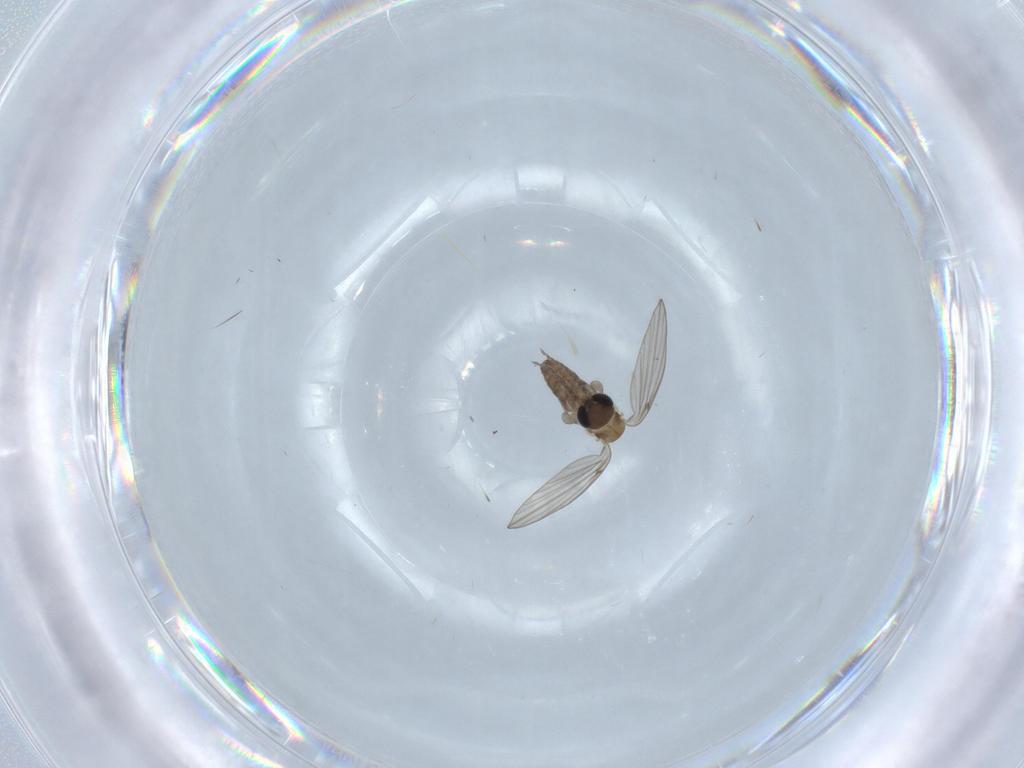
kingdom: Animalia
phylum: Arthropoda
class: Insecta
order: Diptera
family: Psychodidae
